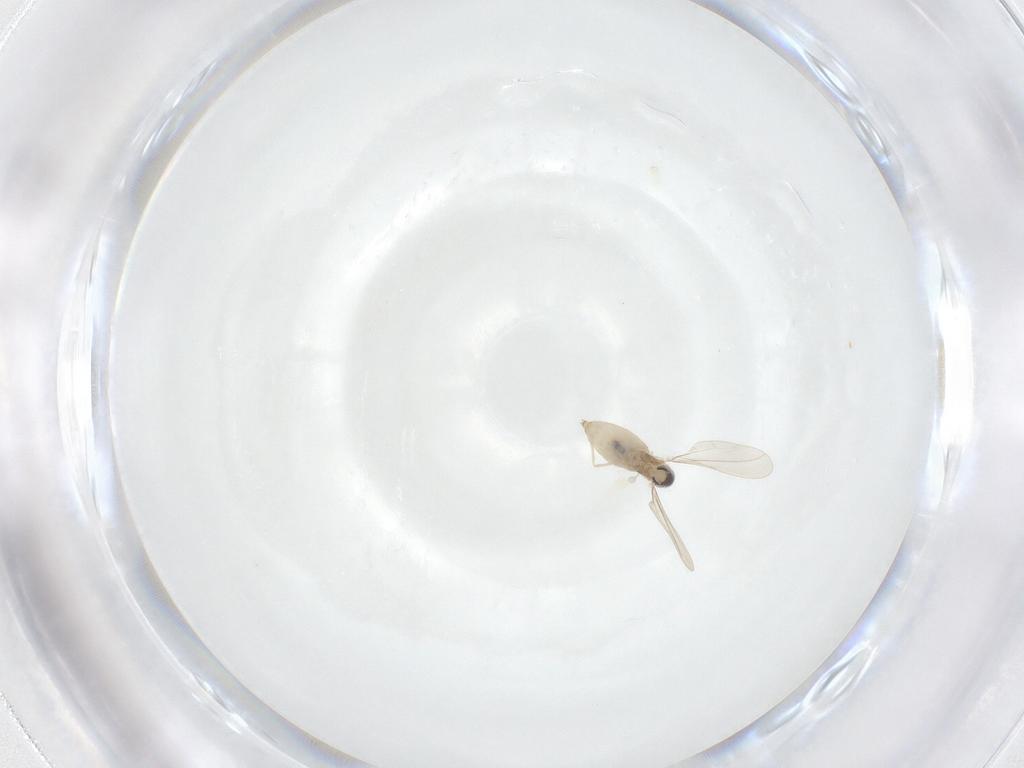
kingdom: Animalia
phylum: Arthropoda
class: Insecta
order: Diptera
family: Cecidomyiidae
